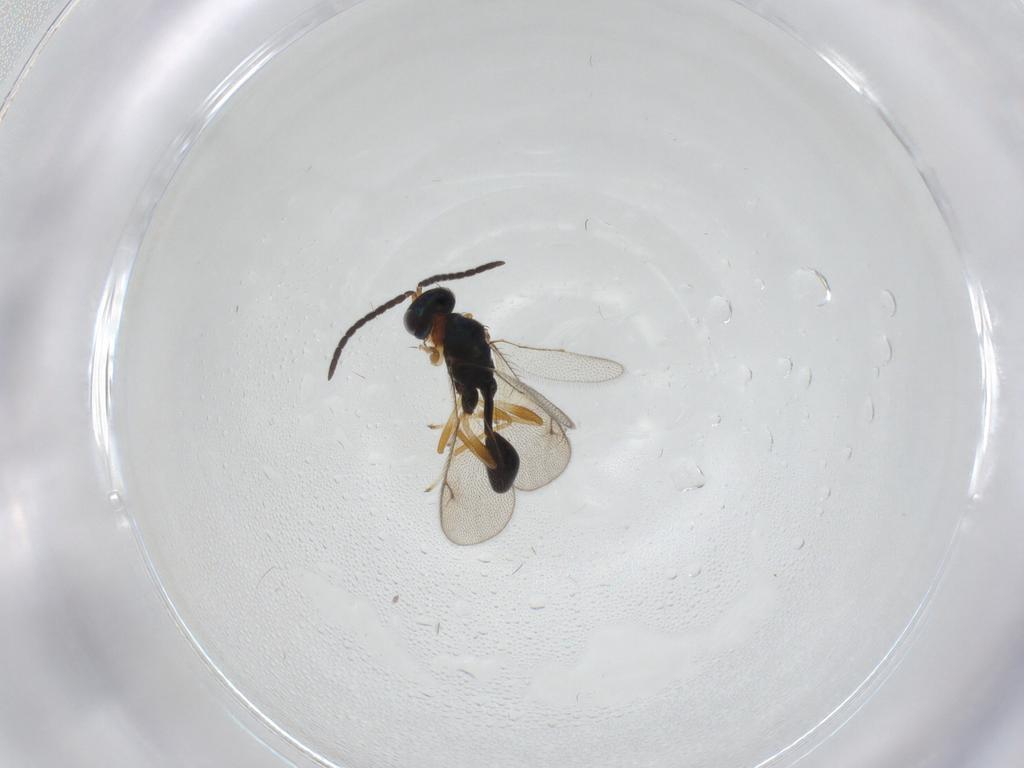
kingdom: Animalia
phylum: Arthropoda
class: Insecta
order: Hymenoptera
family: Diparidae
